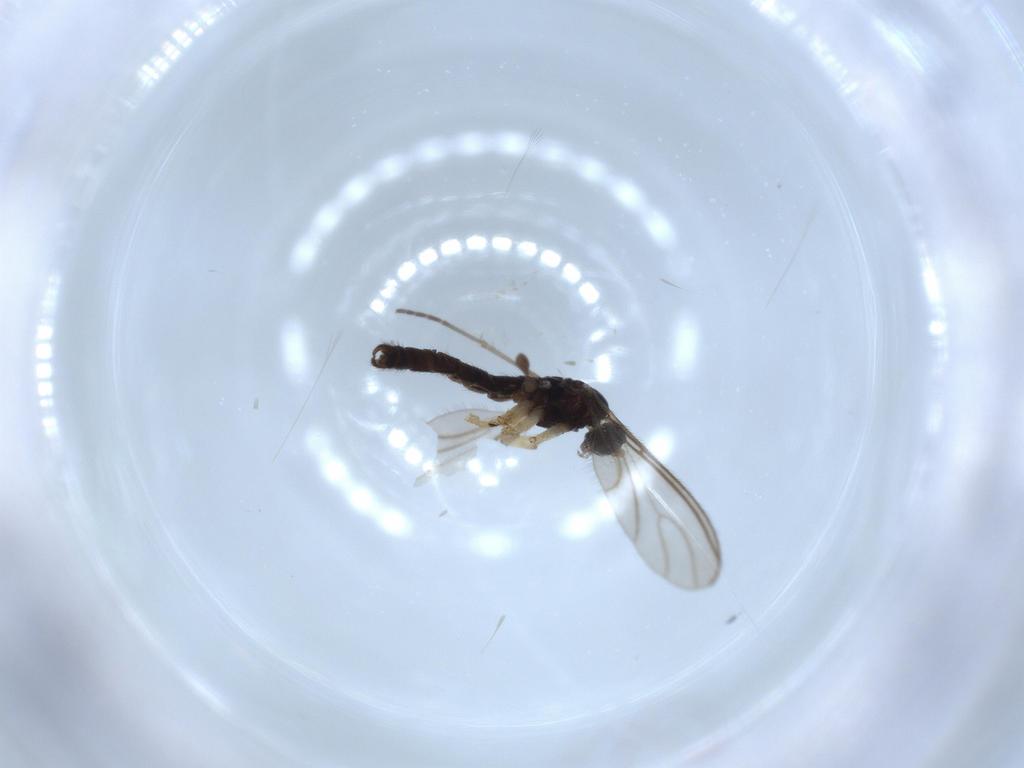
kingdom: Animalia
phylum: Arthropoda
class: Insecta
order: Diptera
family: Sciaridae
